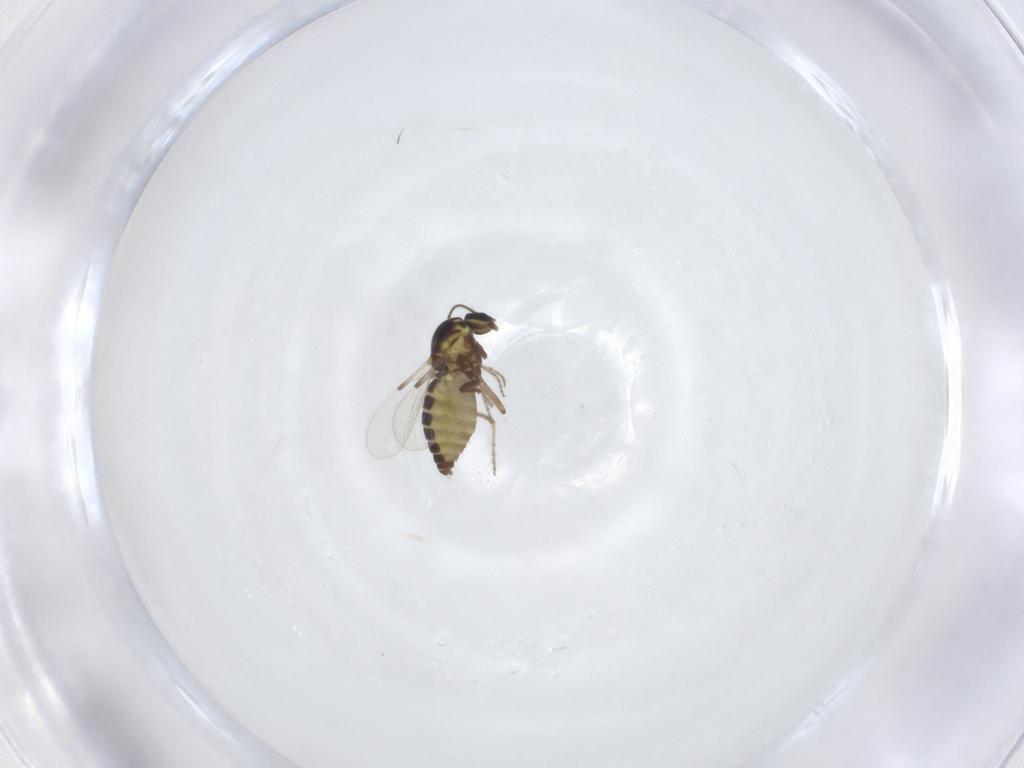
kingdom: Animalia
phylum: Arthropoda
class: Insecta
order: Diptera
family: Ceratopogonidae
